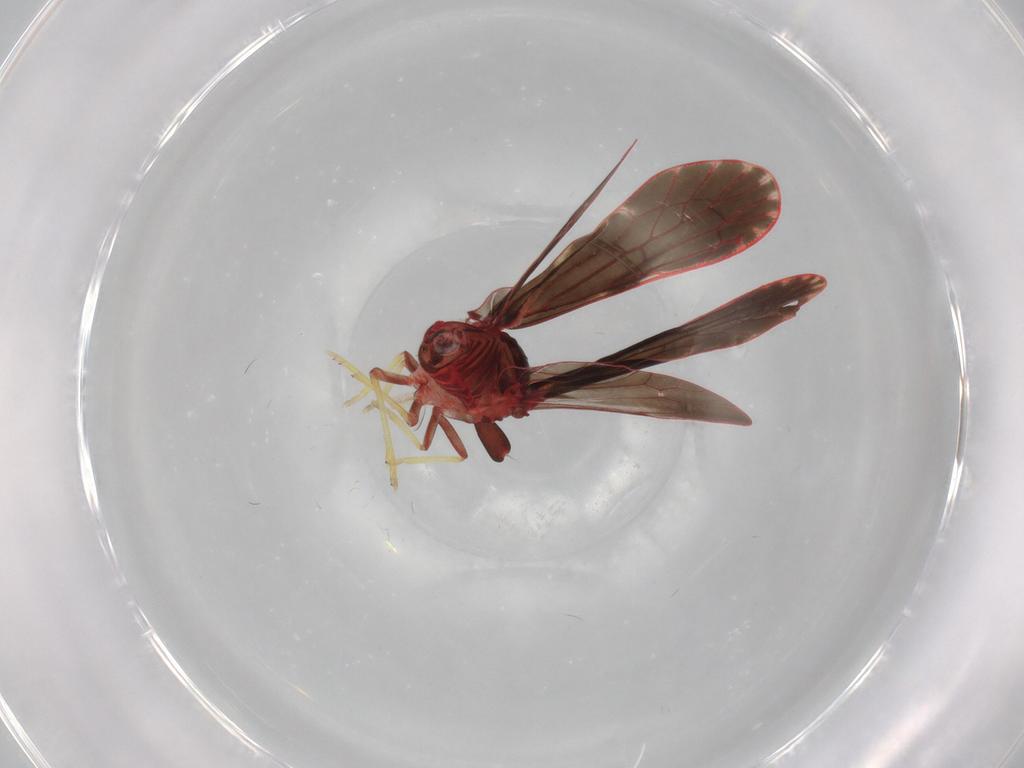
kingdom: Animalia
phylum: Arthropoda
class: Insecta
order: Hemiptera
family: Derbidae
